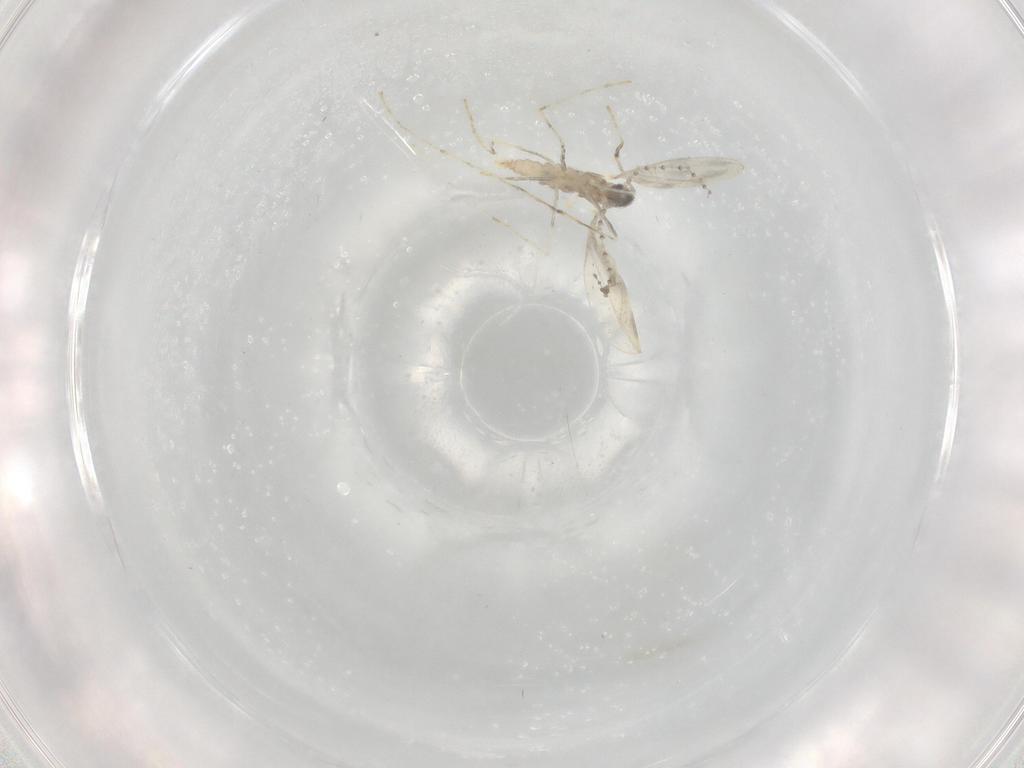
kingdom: Animalia
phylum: Arthropoda
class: Insecta
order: Diptera
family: Cecidomyiidae
